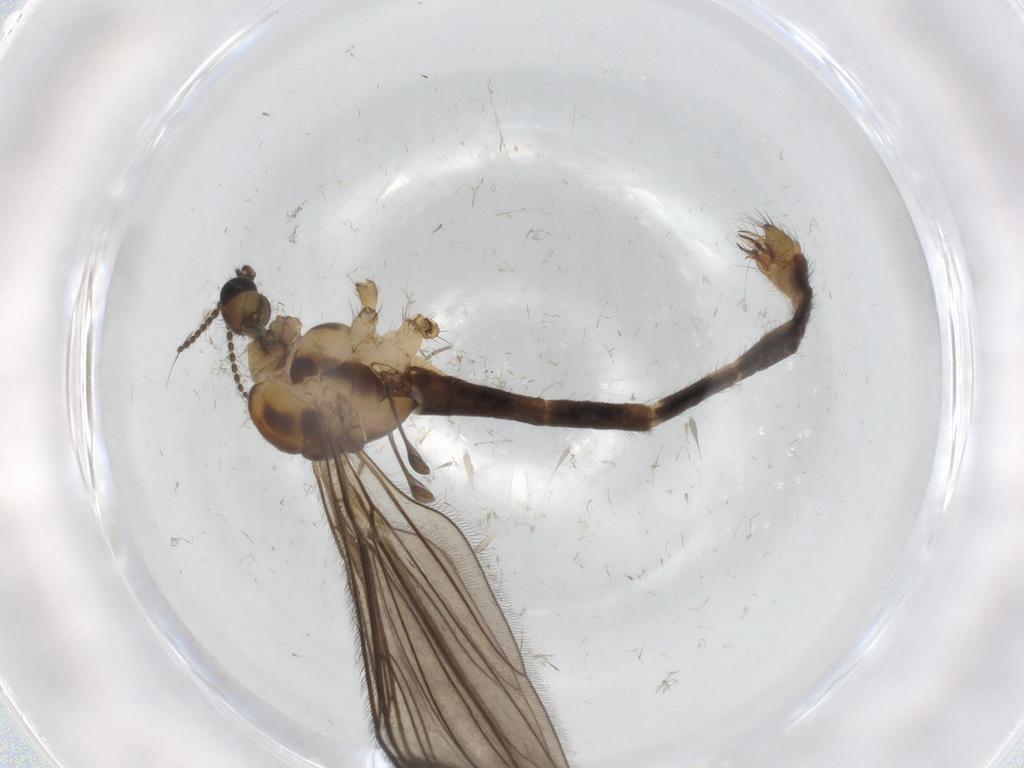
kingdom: Animalia
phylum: Arthropoda
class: Insecta
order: Diptera
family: Limoniidae
